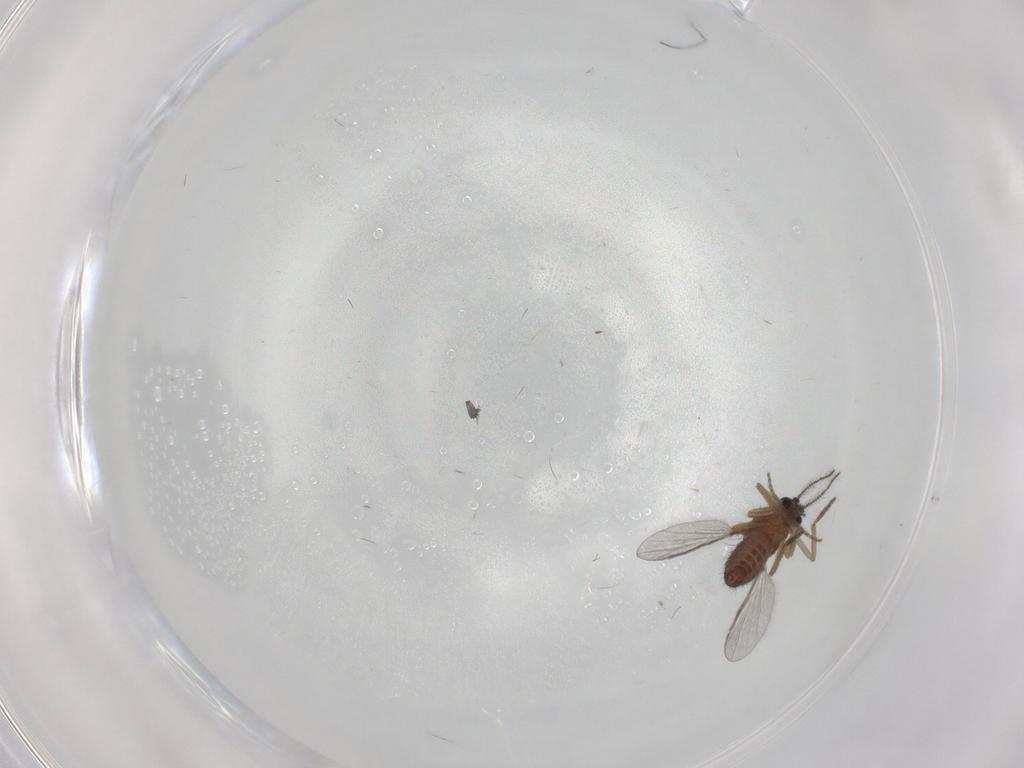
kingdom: Animalia
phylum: Arthropoda
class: Insecta
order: Diptera
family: Ceratopogonidae
